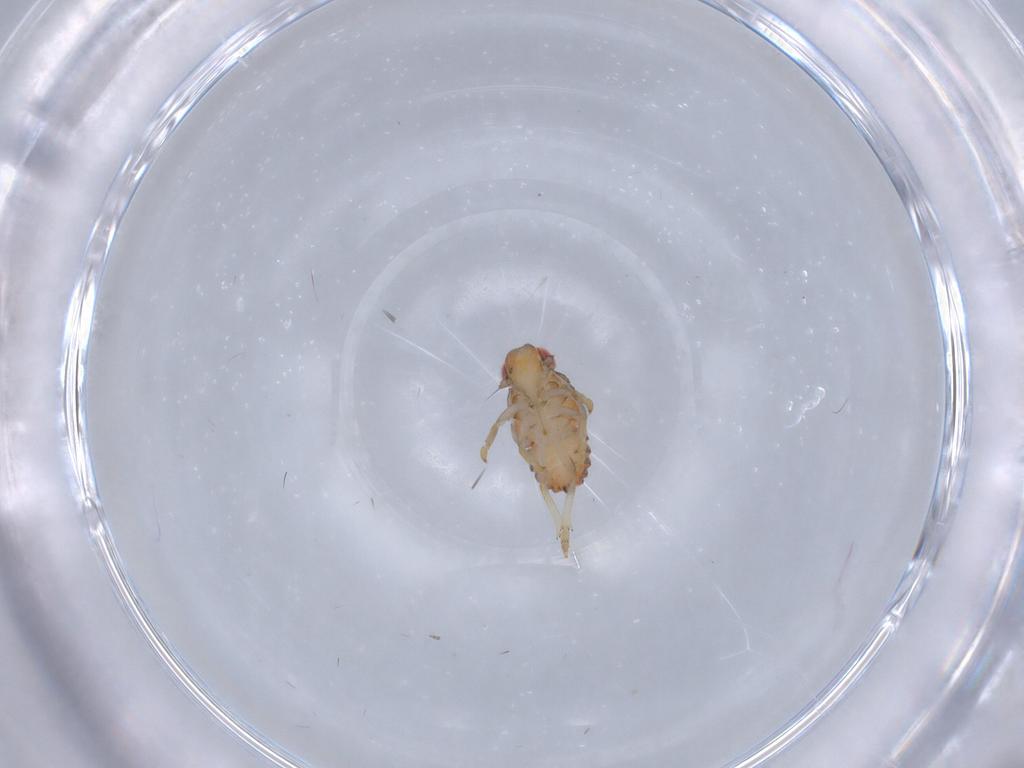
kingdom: Animalia
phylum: Arthropoda
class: Insecta
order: Hemiptera
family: Issidae
